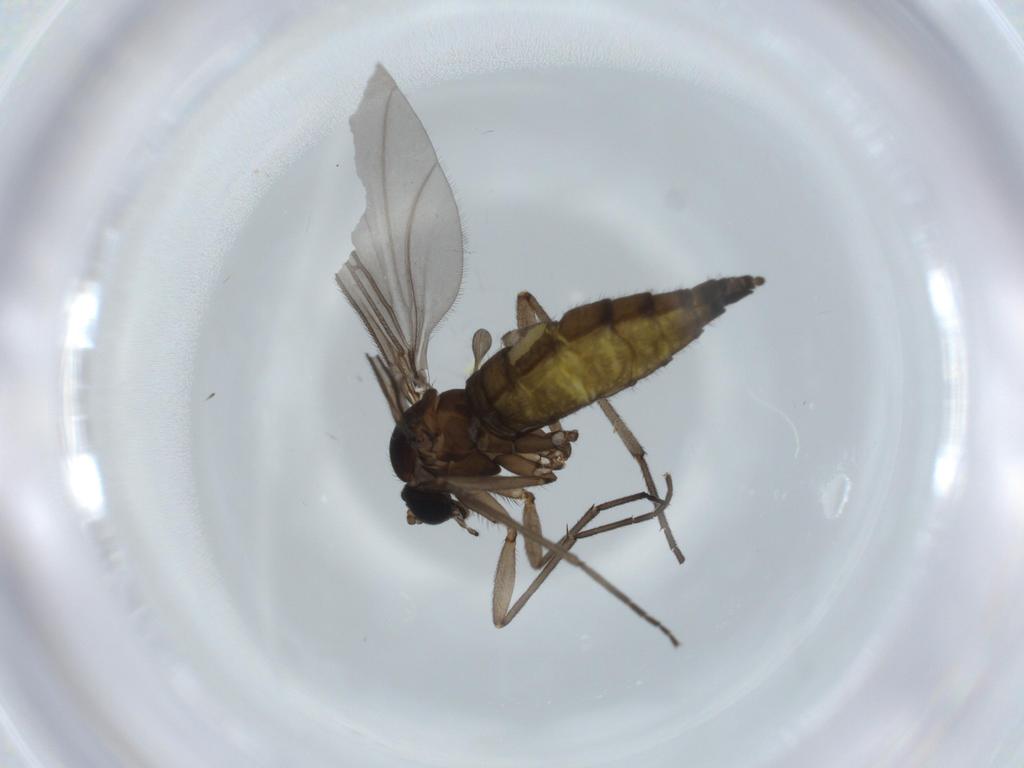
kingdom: Animalia
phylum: Arthropoda
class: Insecta
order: Diptera
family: Sciaridae
